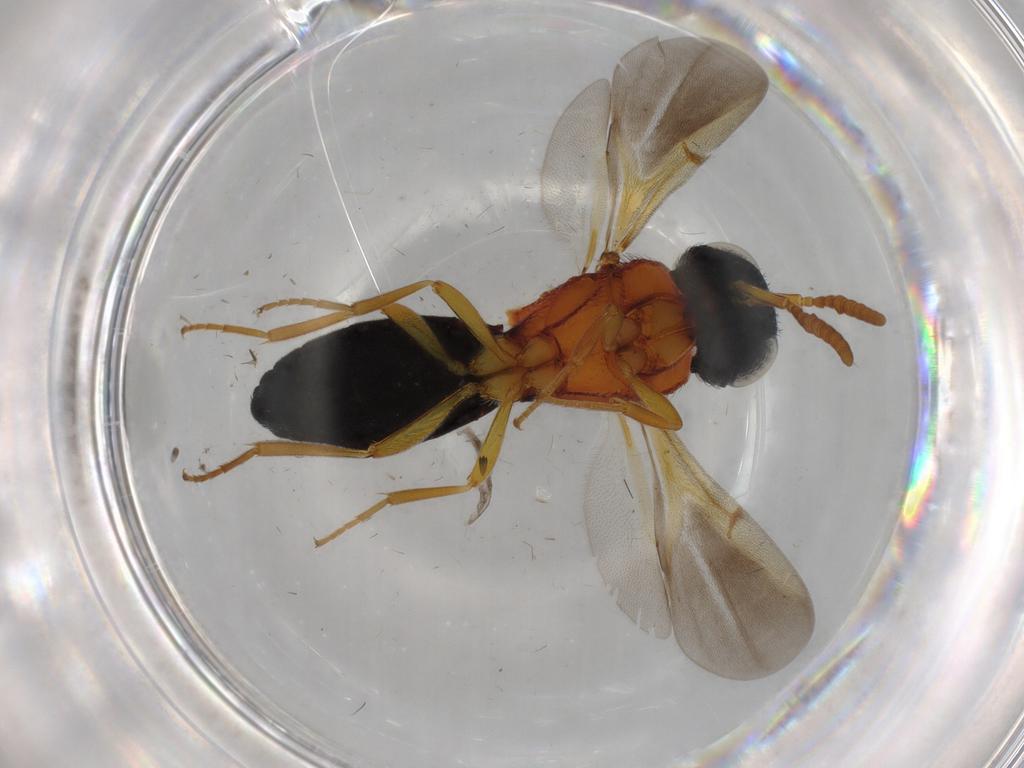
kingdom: Animalia
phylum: Arthropoda
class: Insecta
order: Hymenoptera
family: Scelionidae
